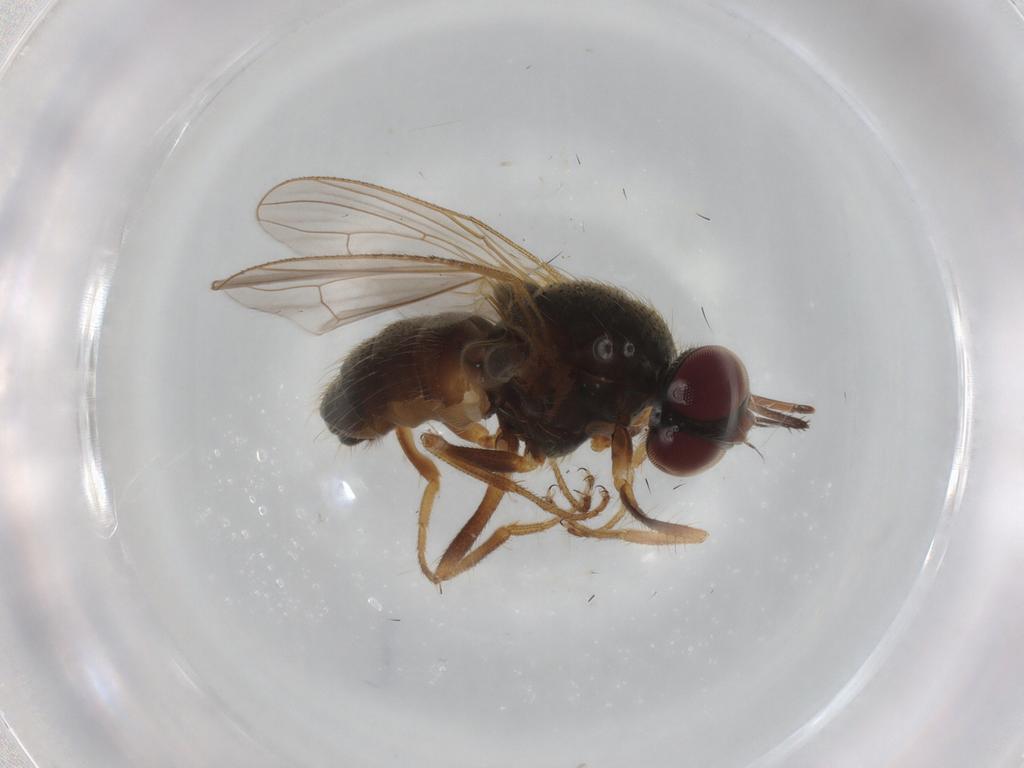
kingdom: Animalia
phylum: Arthropoda
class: Insecta
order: Diptera
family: Muscidae
